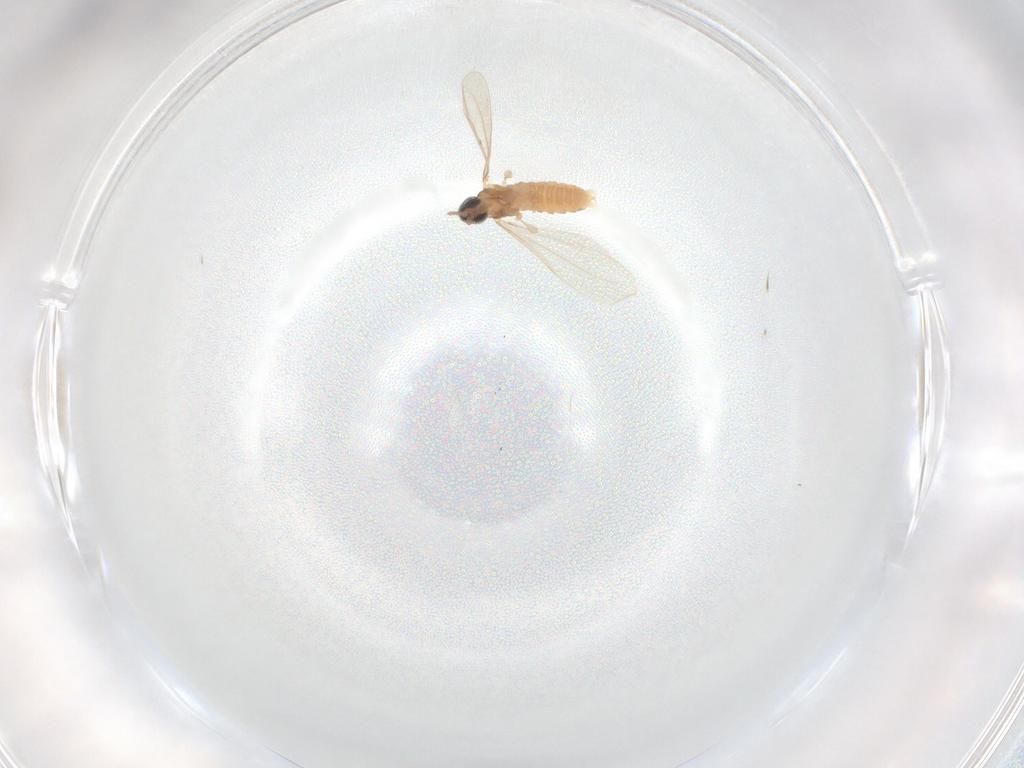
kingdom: Animalia
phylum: Arthropoda
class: Insecta
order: Diptera
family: Cecidomyiidae
